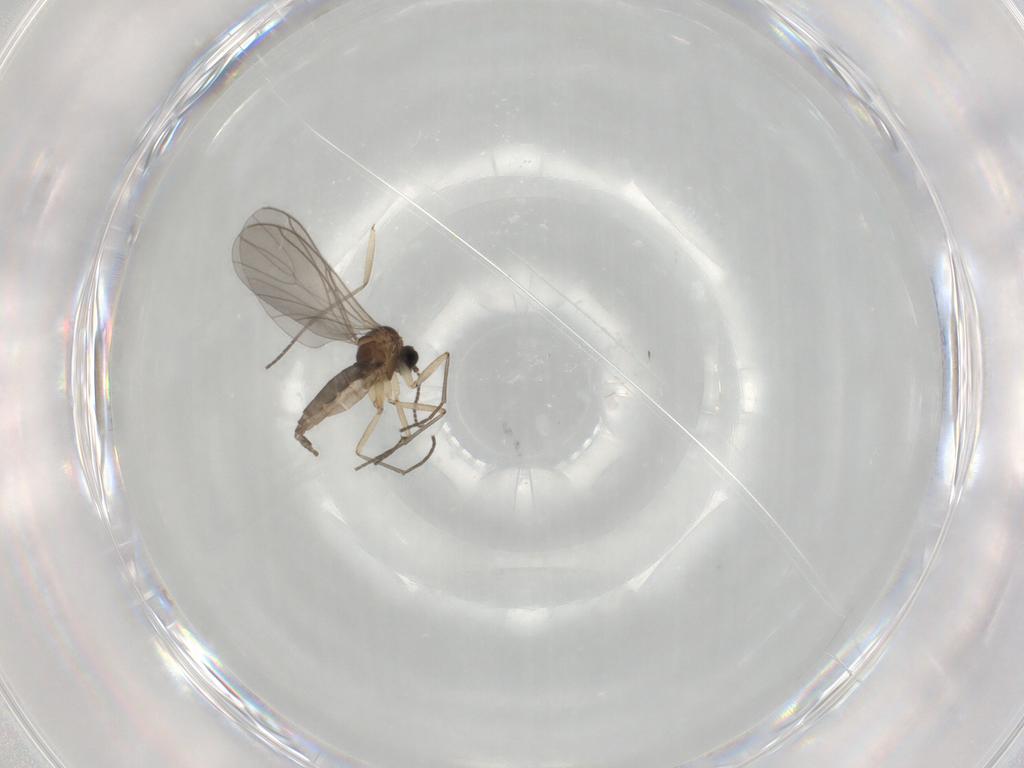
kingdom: Animalia
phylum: Arthropoda
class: Insecta
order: Diptera
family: Sciaridae
